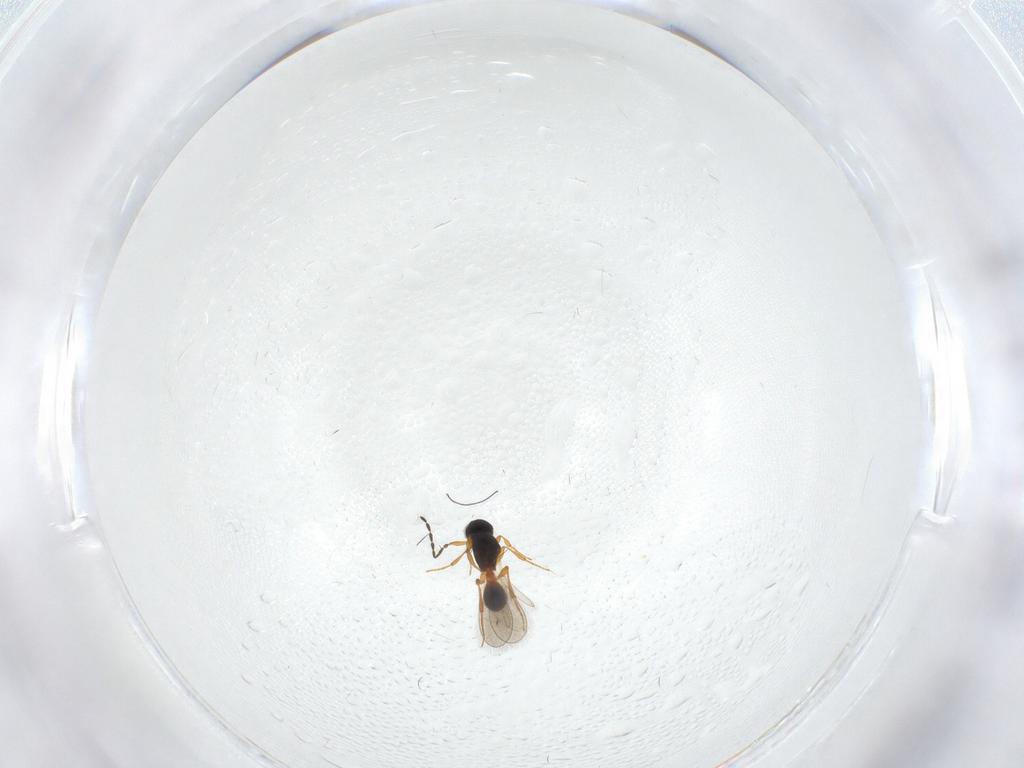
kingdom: Animalia
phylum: Arthropoda
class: Insecta
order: Hymenoptera
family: Platygastridae
